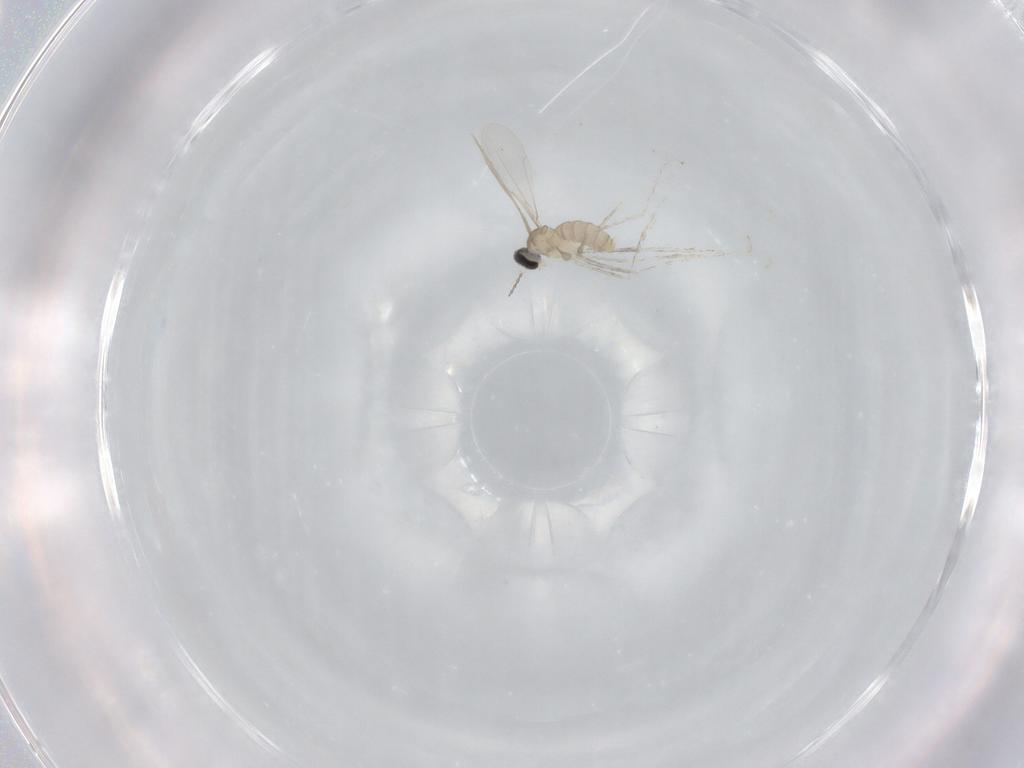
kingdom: Animalia
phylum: Arthropoda
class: Insecta
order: Diptera
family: Cecidomyiidae
